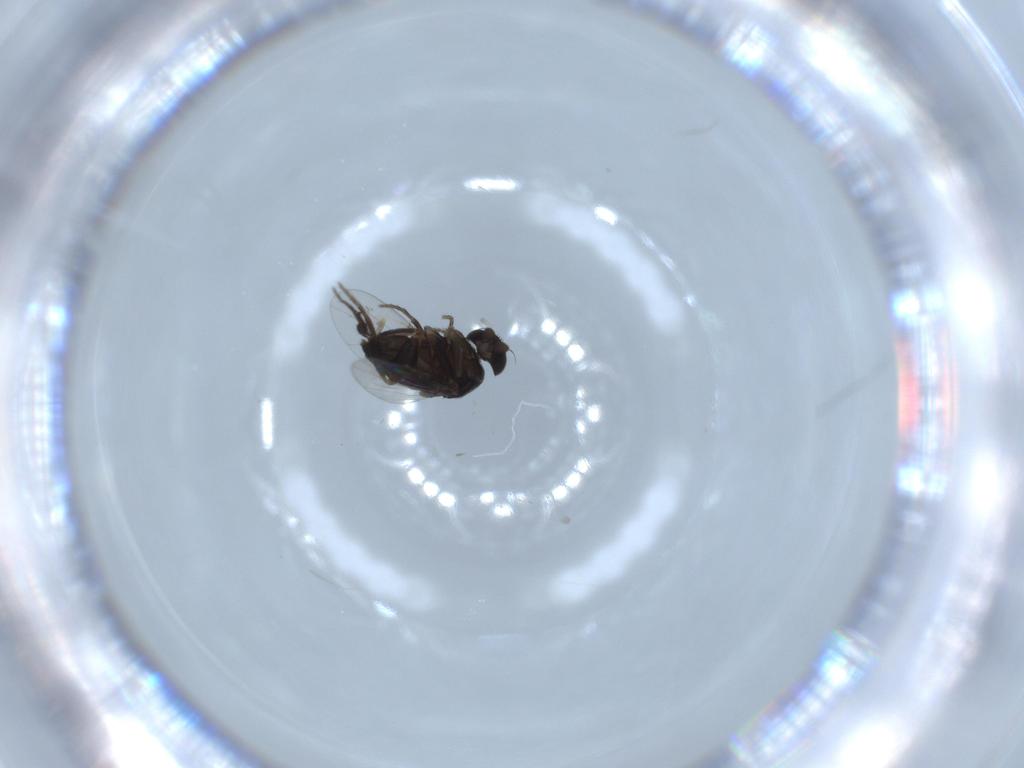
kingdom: Animalia
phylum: Arthropoda
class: Insecta
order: Diptera
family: Phoridae
